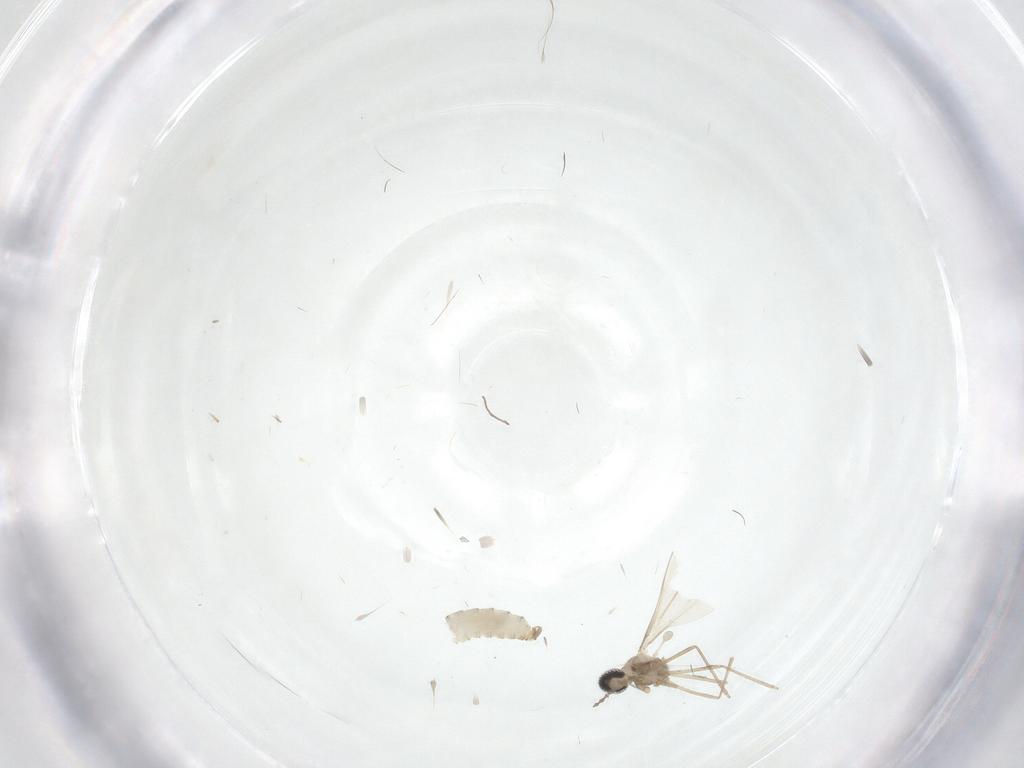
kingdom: Animalia
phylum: Arthropoda
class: Insecta
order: Diptera
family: Cecidomyiidae
